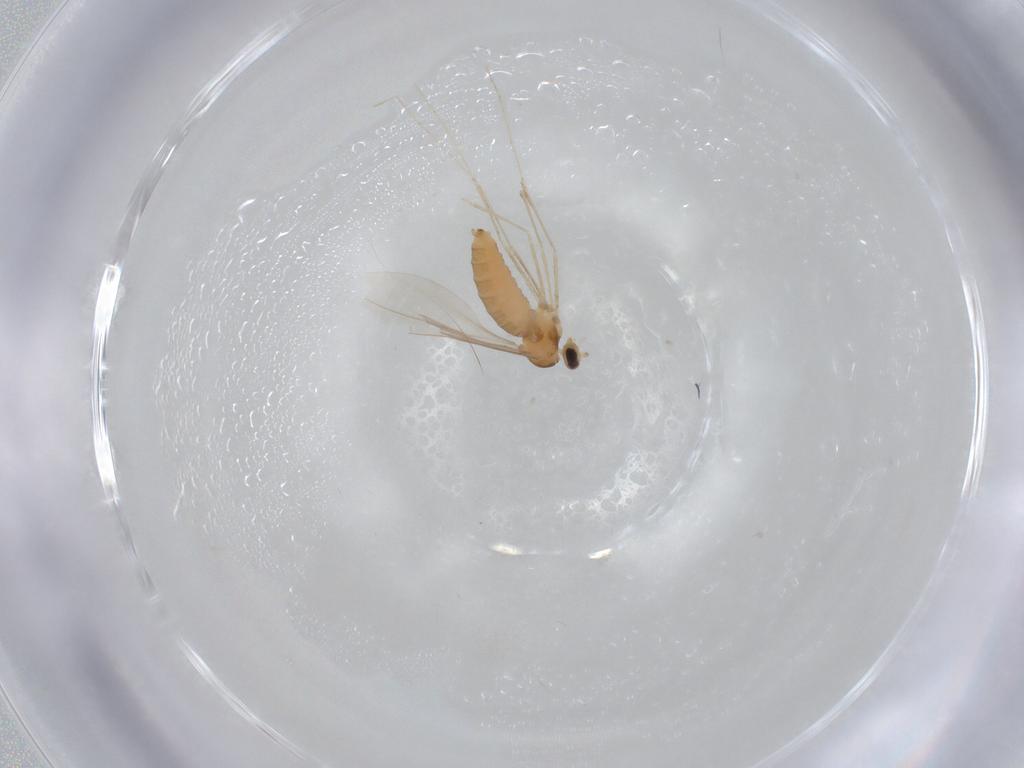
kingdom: Animalia
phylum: Arthropoda
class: Insecta
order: Diptera
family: Cecidomyiidae
